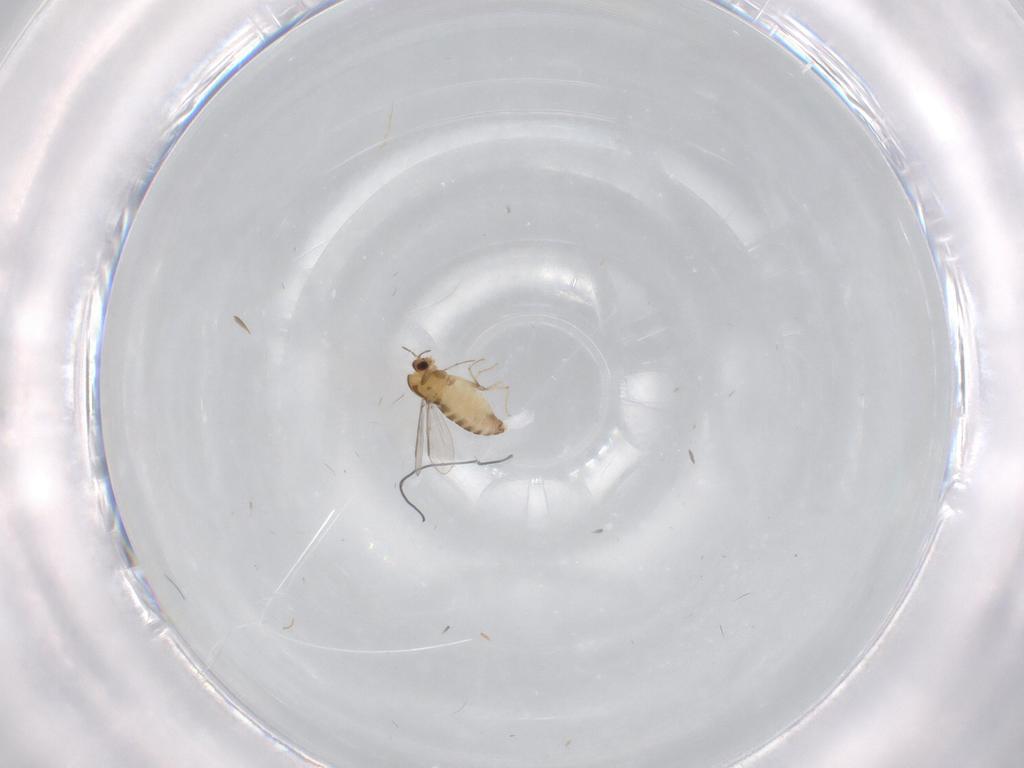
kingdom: Animalia
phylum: Arthropoda
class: Insecta
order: Diptera
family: Chironomidae
